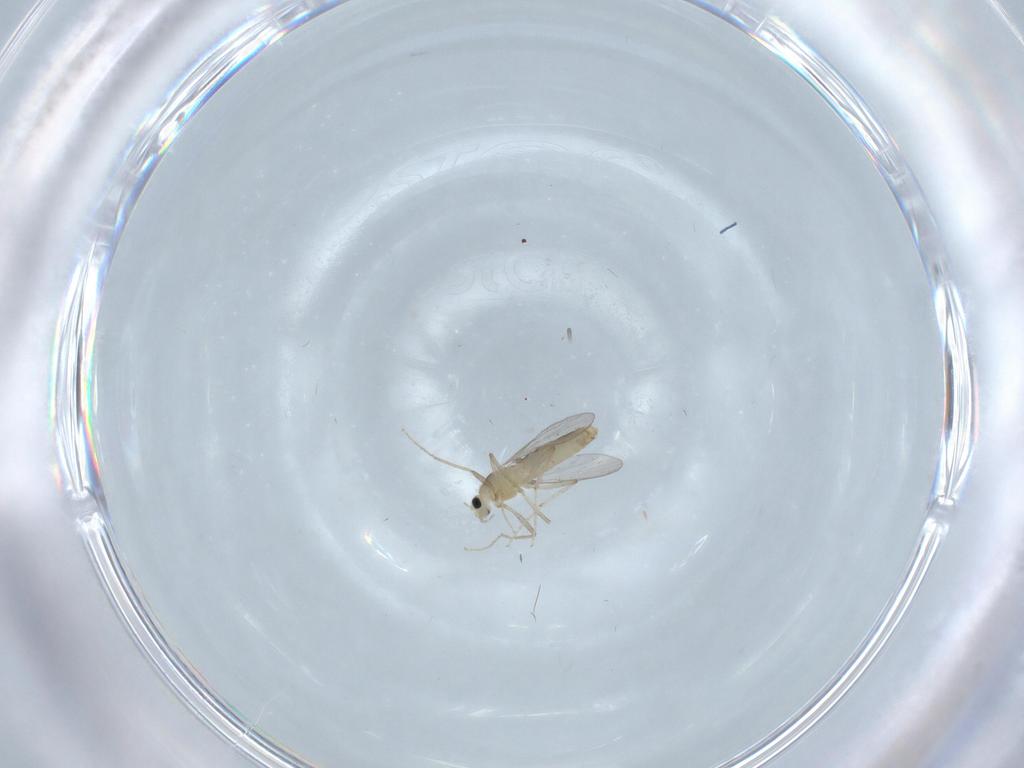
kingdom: Animalia
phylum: Arthropoda
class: Insecta
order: Diptera
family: Chironomidae
